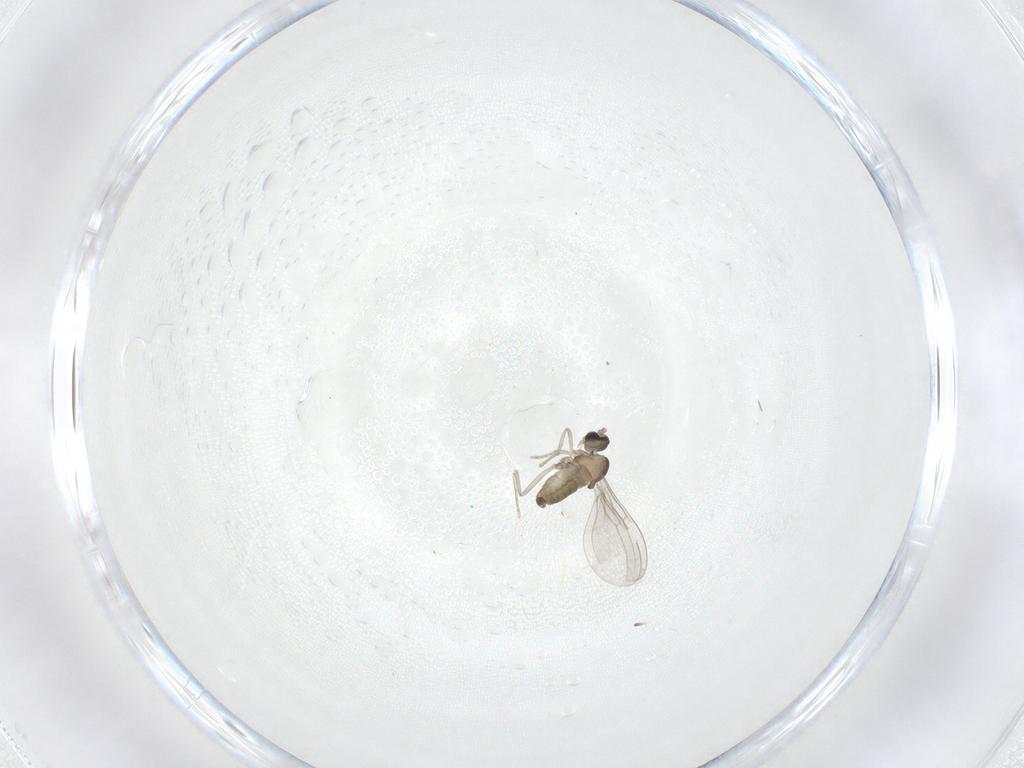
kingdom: Animalia
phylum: Arthropoda
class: Insecta
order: Diptera
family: Cecidomyiidae
